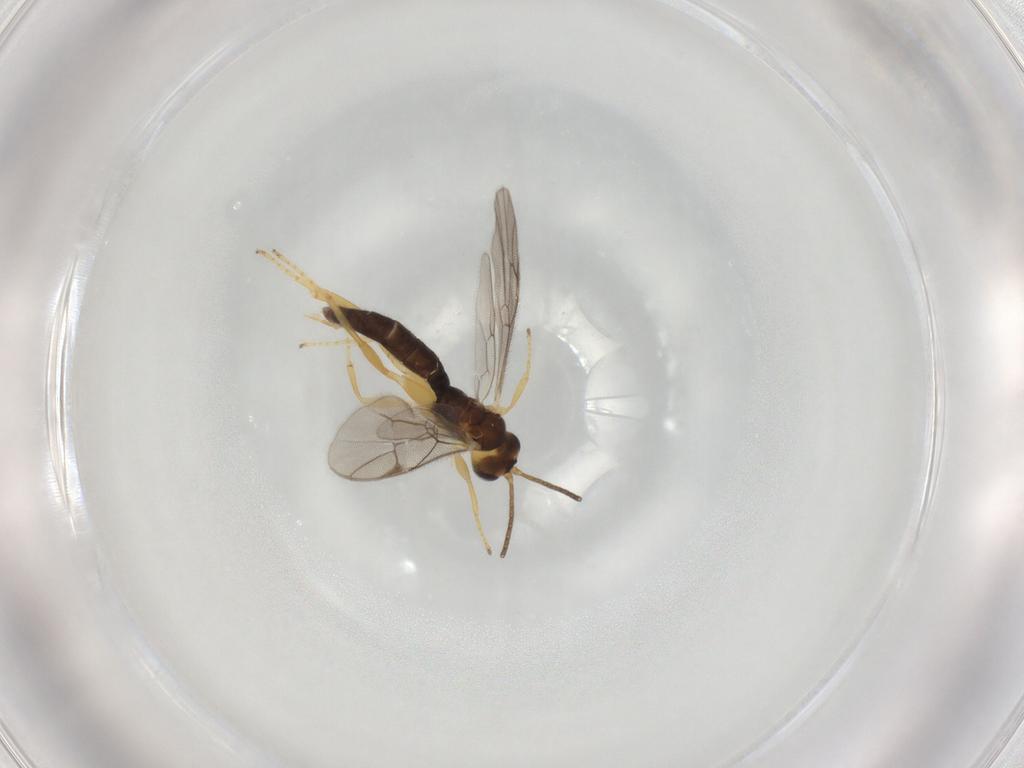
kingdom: Animalia
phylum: Arthropoda
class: Insecta
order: Hymenoptera
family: Ichneumonidae
